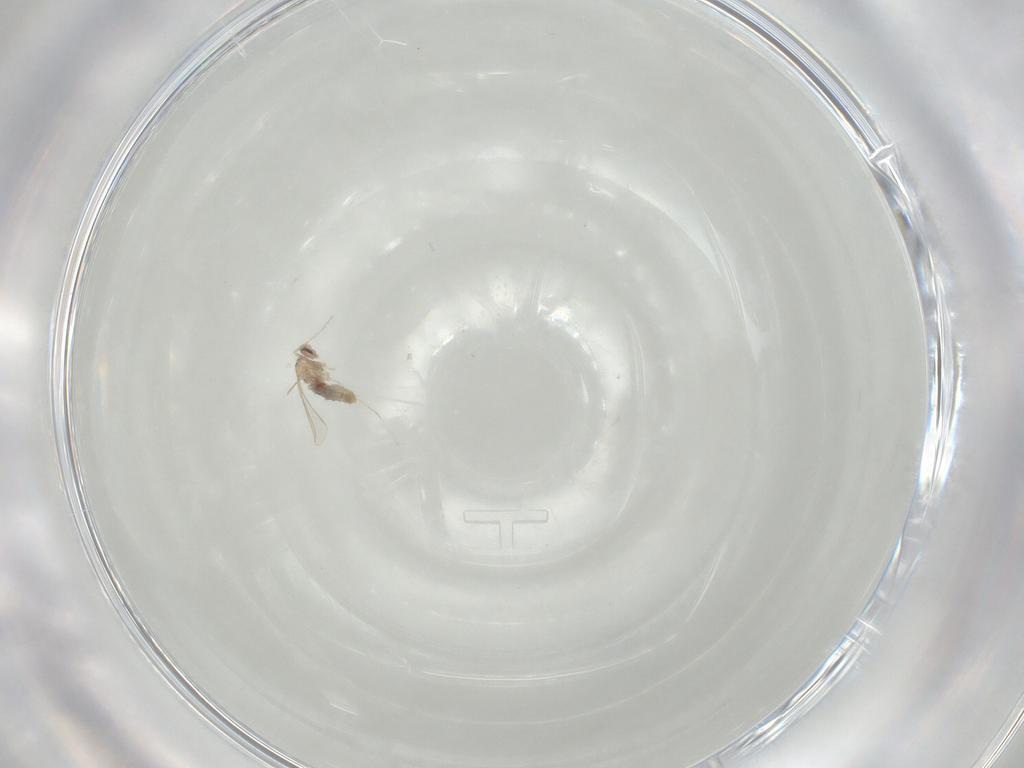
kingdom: Animalia
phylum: Arthropoda
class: Insecta
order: Diptera
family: Cecidomyiidae
